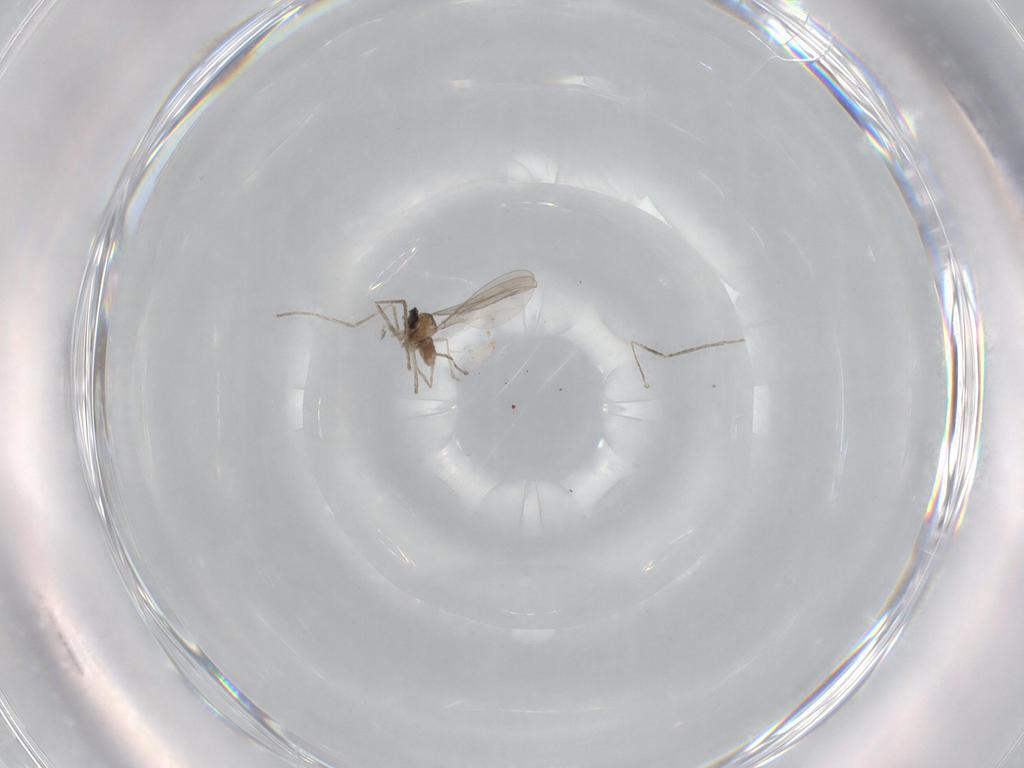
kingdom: Animalia
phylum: Arthropoda
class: Insecta
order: Diptera
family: Cecidomyiidae
